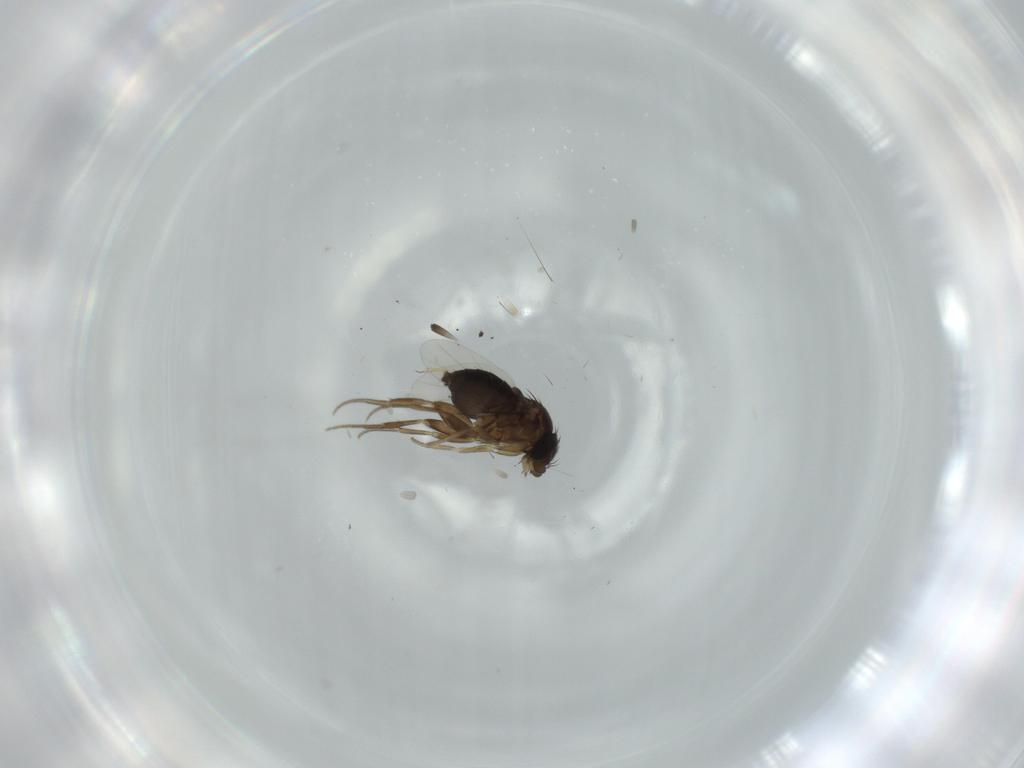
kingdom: Animalia
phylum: Arthropoda
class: Insecta
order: Diptera
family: Phoridae
